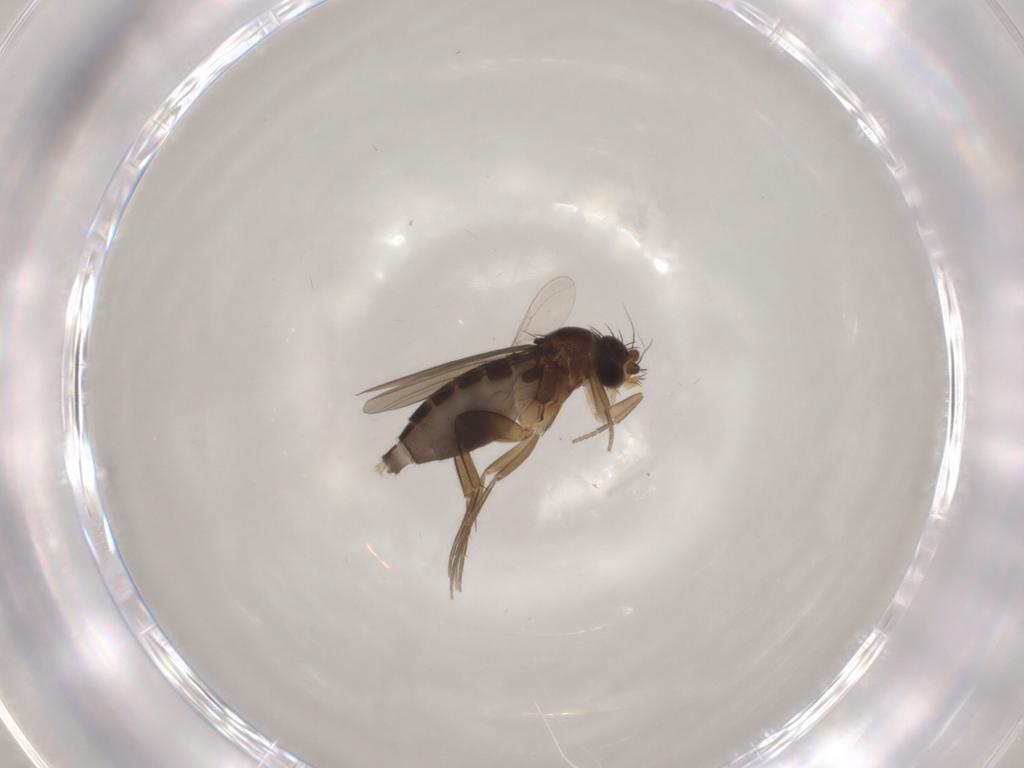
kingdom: Animalia
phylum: Arthropoda
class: Insecta
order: Diptera
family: Phoridae
